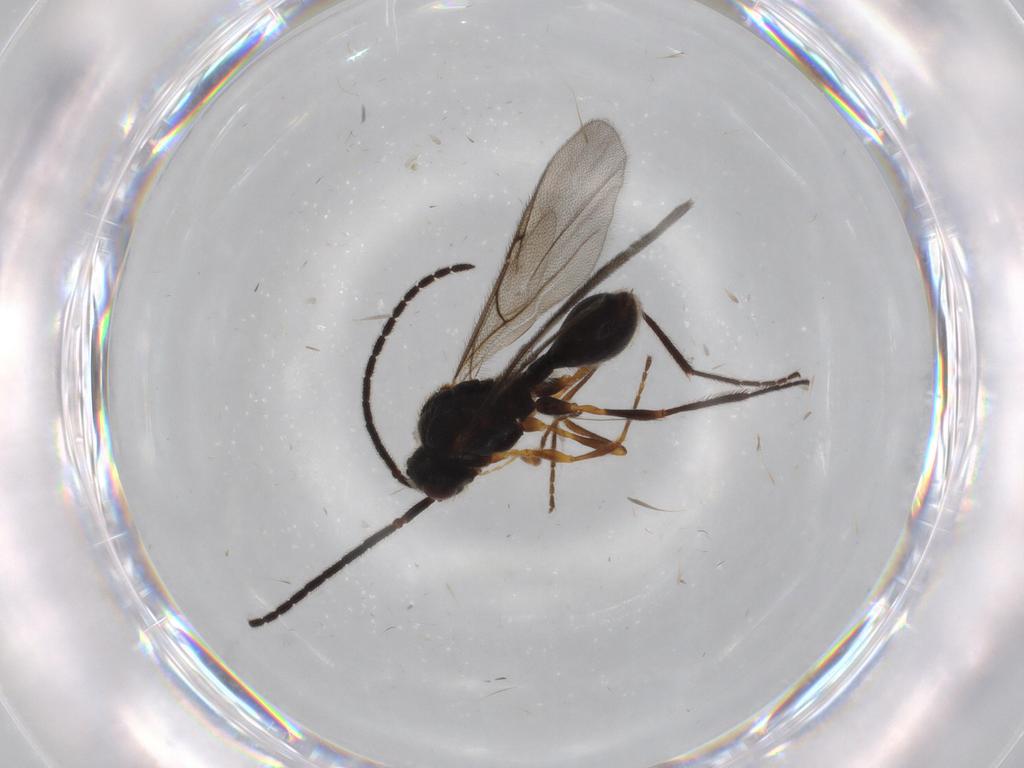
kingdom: Animalia
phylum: Arthropoda
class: Insecta
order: Hymenoptera
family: Diapriidae
